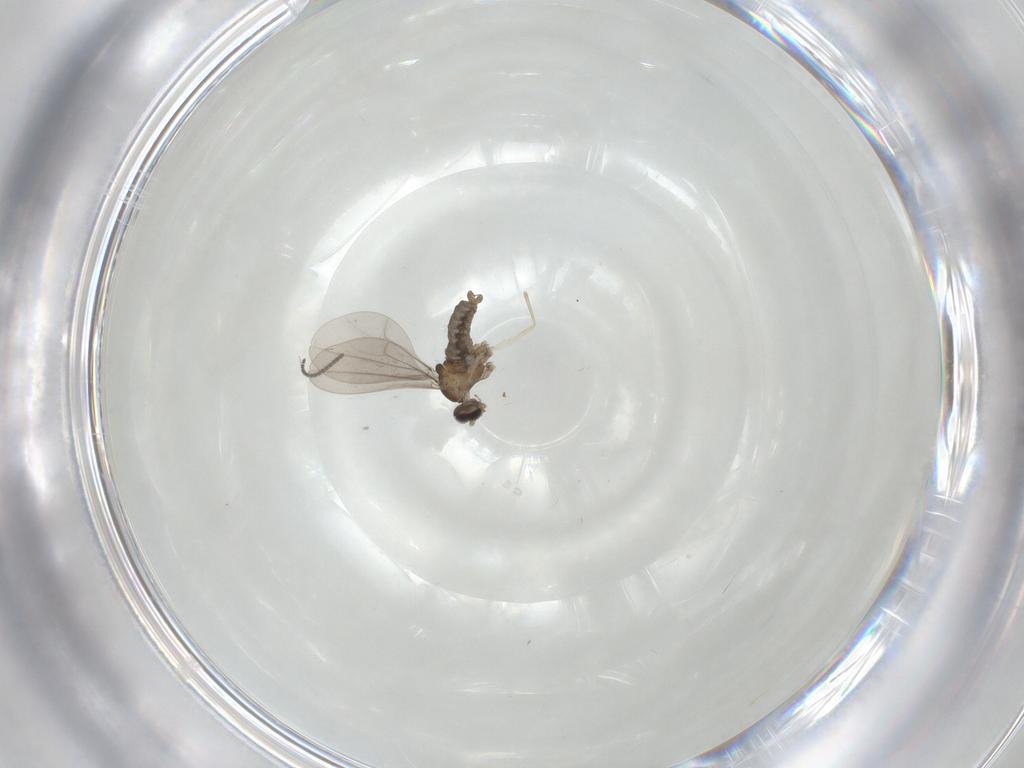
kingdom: Animalia
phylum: Arthropoda
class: Insecta
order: Diptera
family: Cecidomyiidae
